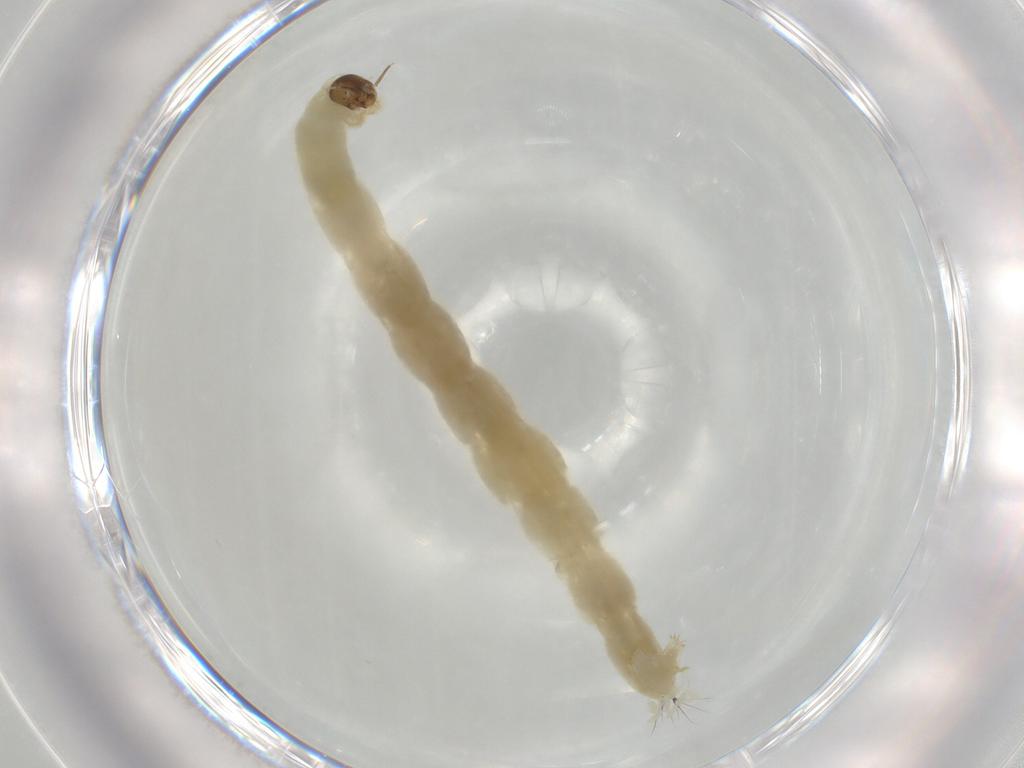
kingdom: Animalia
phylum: Arthropoda
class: Insecta
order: Diptera
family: Chironomidae
